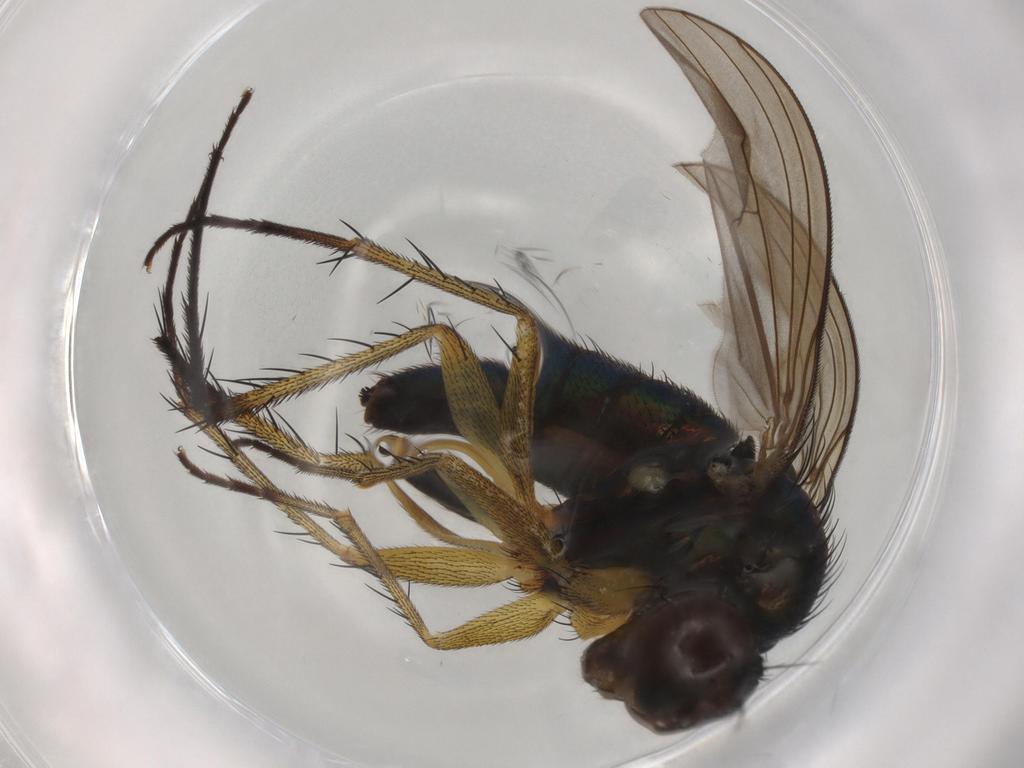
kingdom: Animalia
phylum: Arthropoda
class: Insecta
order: Diptera
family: Dolichopodidae
